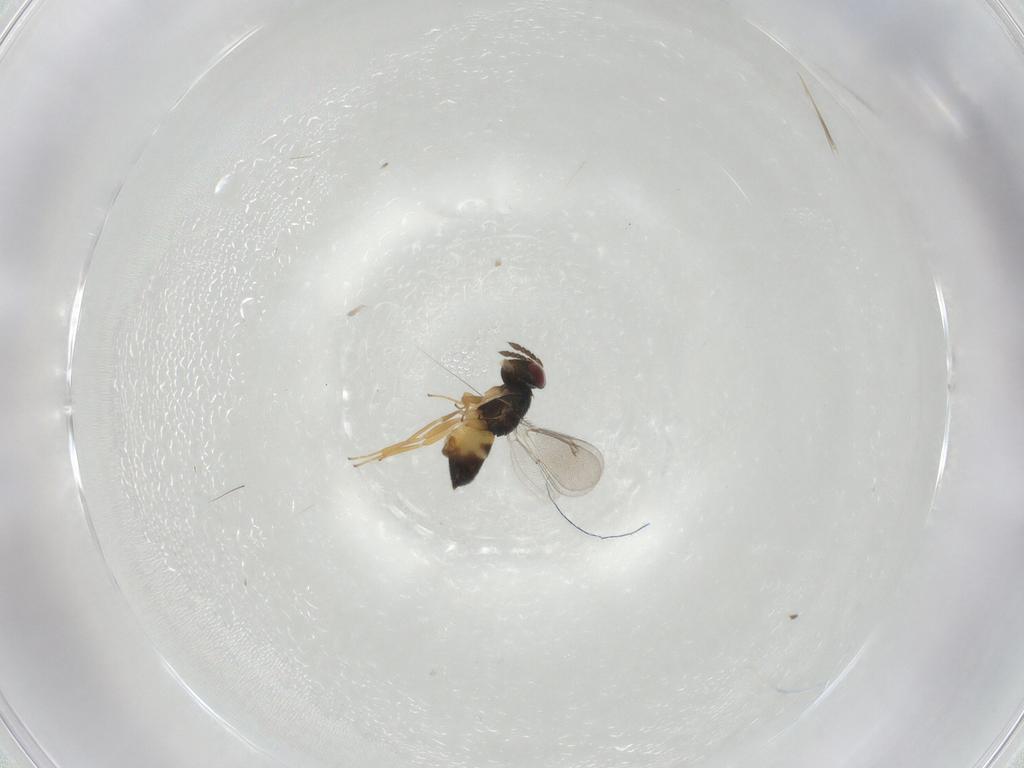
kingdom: Animalia
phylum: Arthropoda
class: Insecta
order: Hymenoptera
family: Eulophidae
